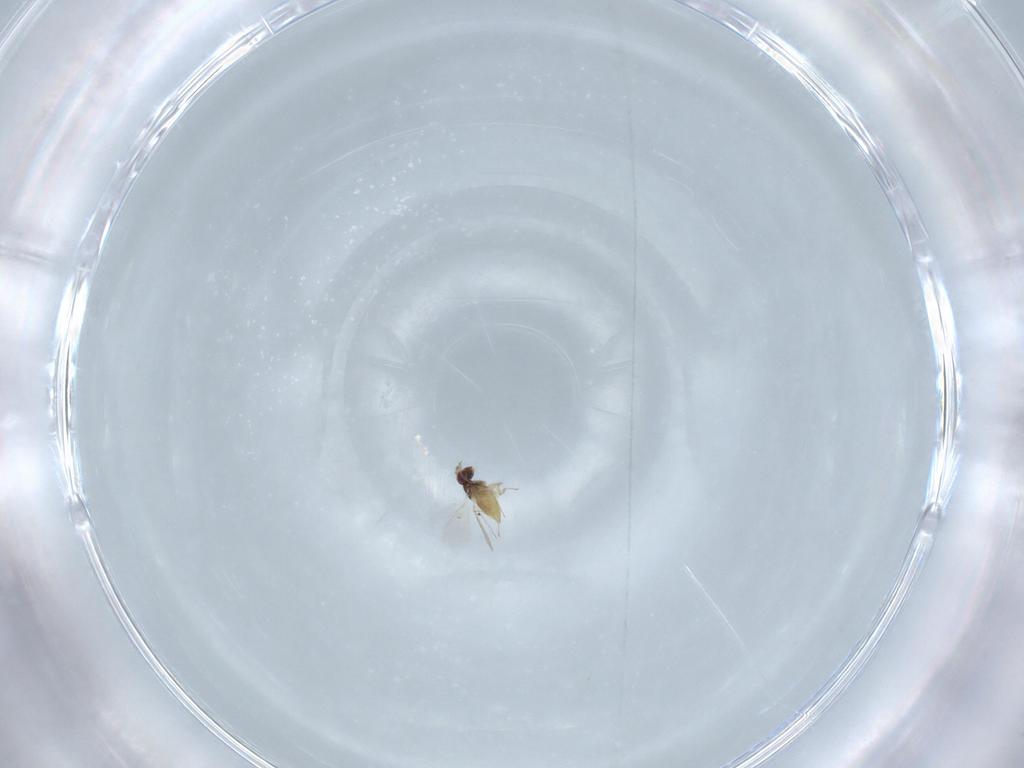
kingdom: Animalia
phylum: Arthropoda
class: Insecta
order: Hymenoptera
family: Trichogrammatidae
